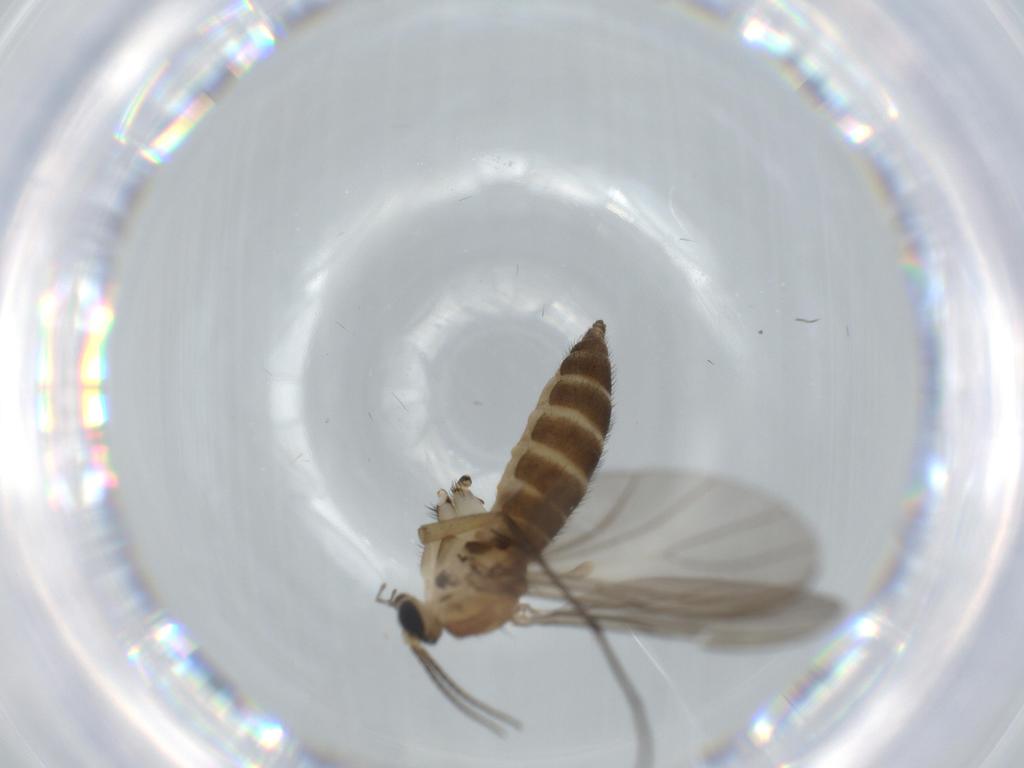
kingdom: Animalia
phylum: Arthropoda
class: Insecta
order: Diptera
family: Sciaridae
